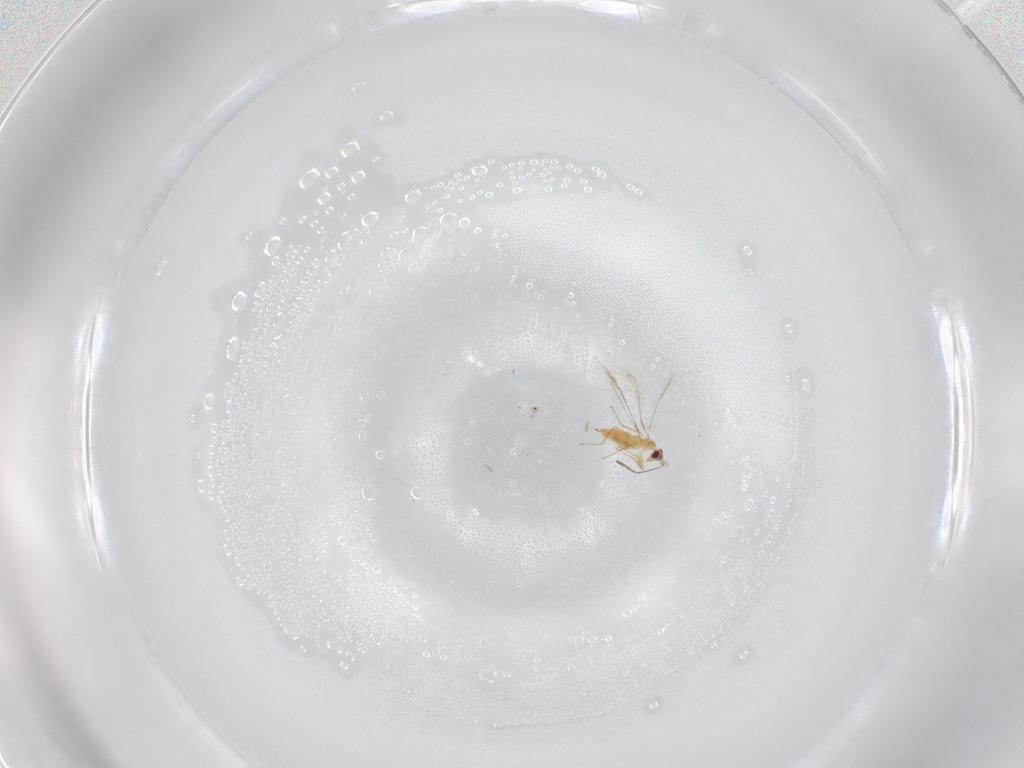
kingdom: Animalia
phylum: Arthropoda
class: Insecta
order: Hymenoptera
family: Mymaridae
